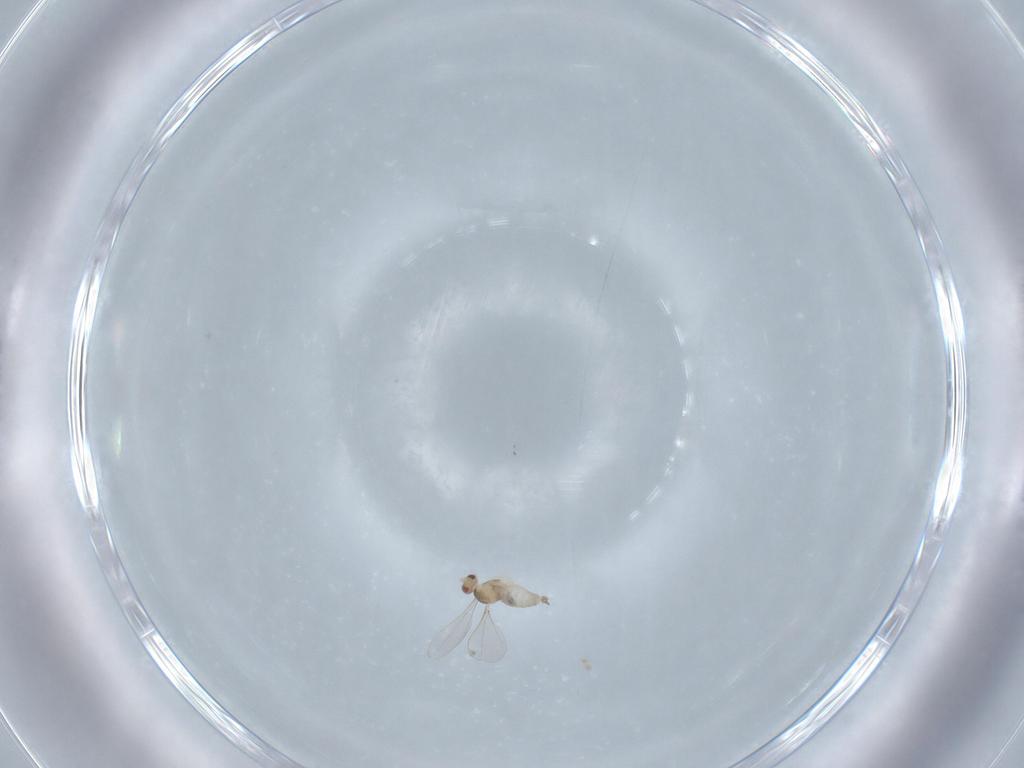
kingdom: Animalia
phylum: Arthropoda
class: Insecta
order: Diptera
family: Cecidomyiidae
